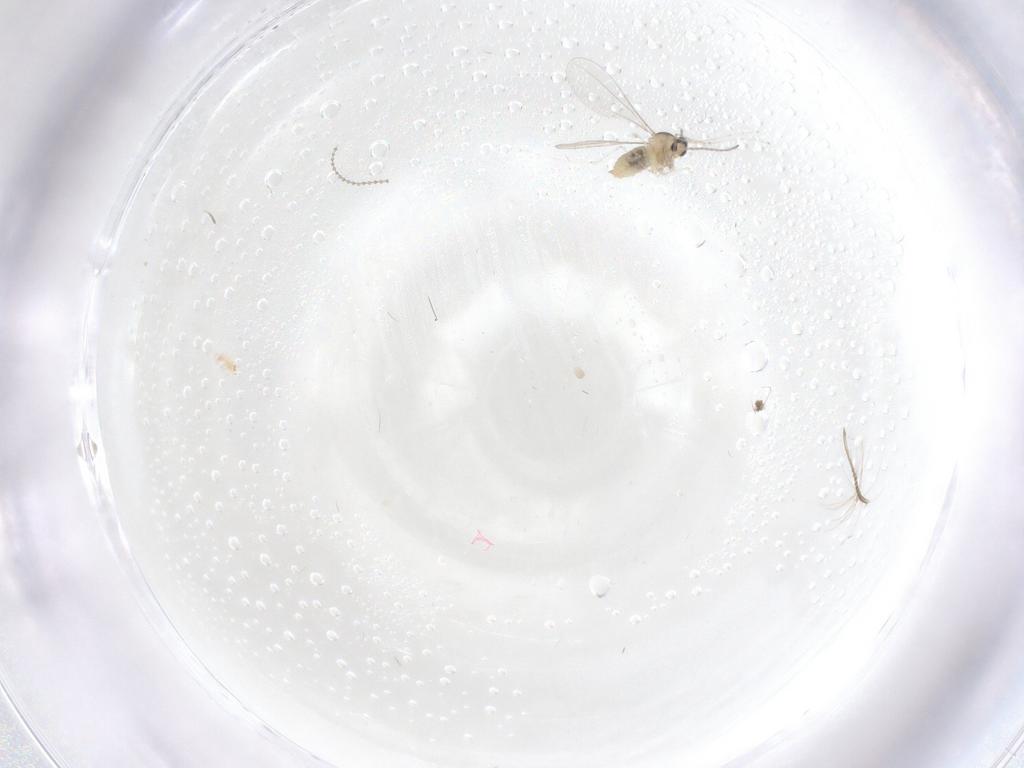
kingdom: Animalia
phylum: Arthropoda
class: Insecta
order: Diptera
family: Cecidomyiidae
